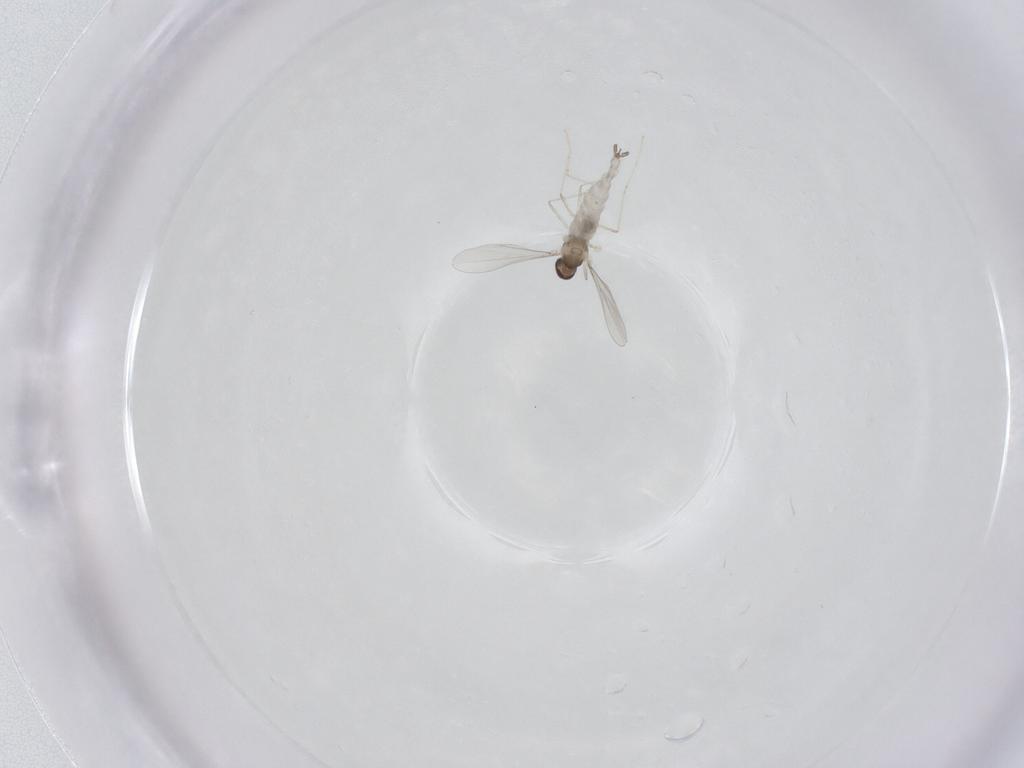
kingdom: Animalia
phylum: Arthropoda
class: Insecta
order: Diptera
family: Cecidomyiidae
